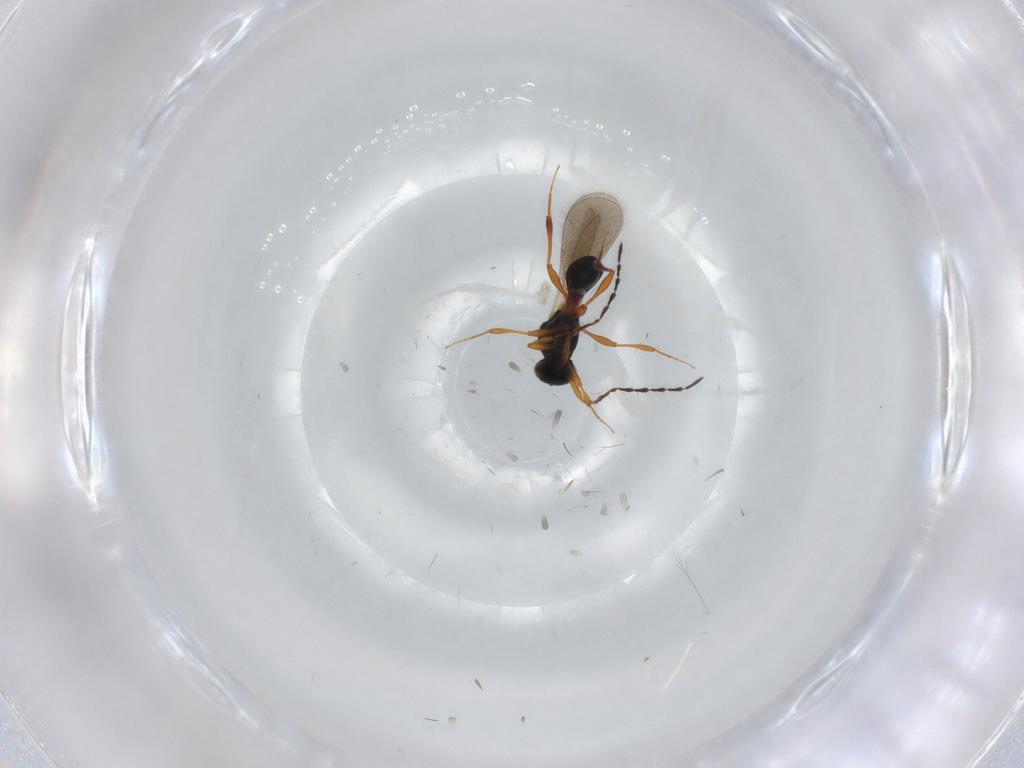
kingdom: Animalia
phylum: Arthropoda
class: Insecta
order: Hymenoptera
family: Platygastridae
